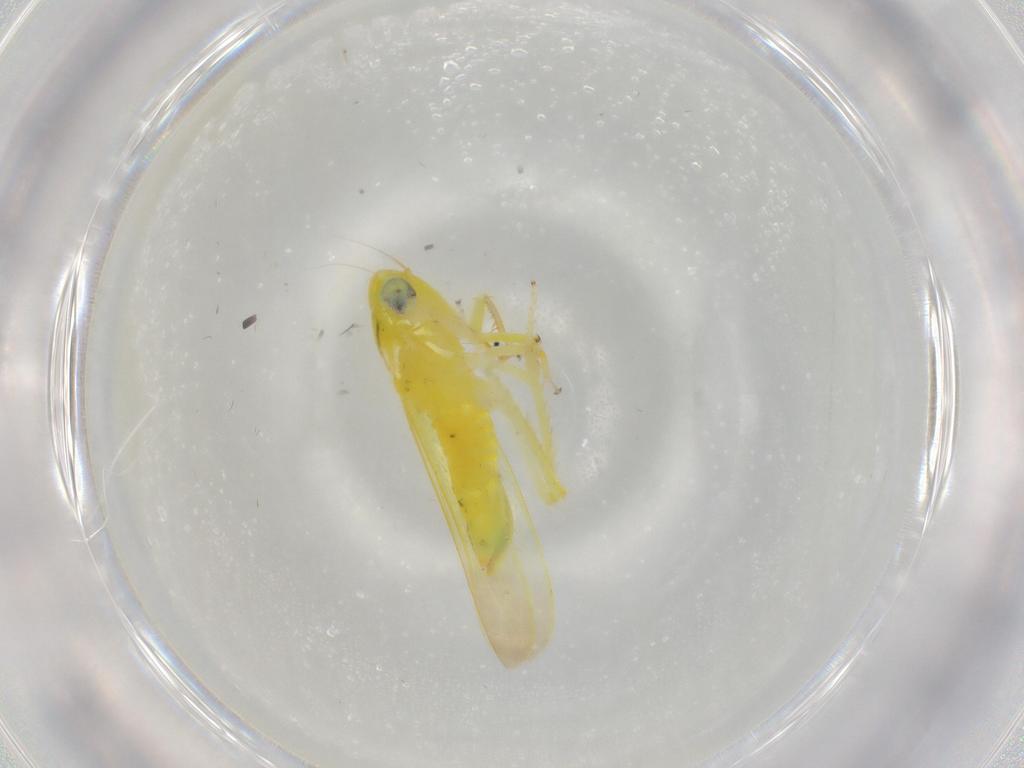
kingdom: Animalia
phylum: Arthropoda
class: Insecta
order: Hemiptera
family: Cicadellidae
